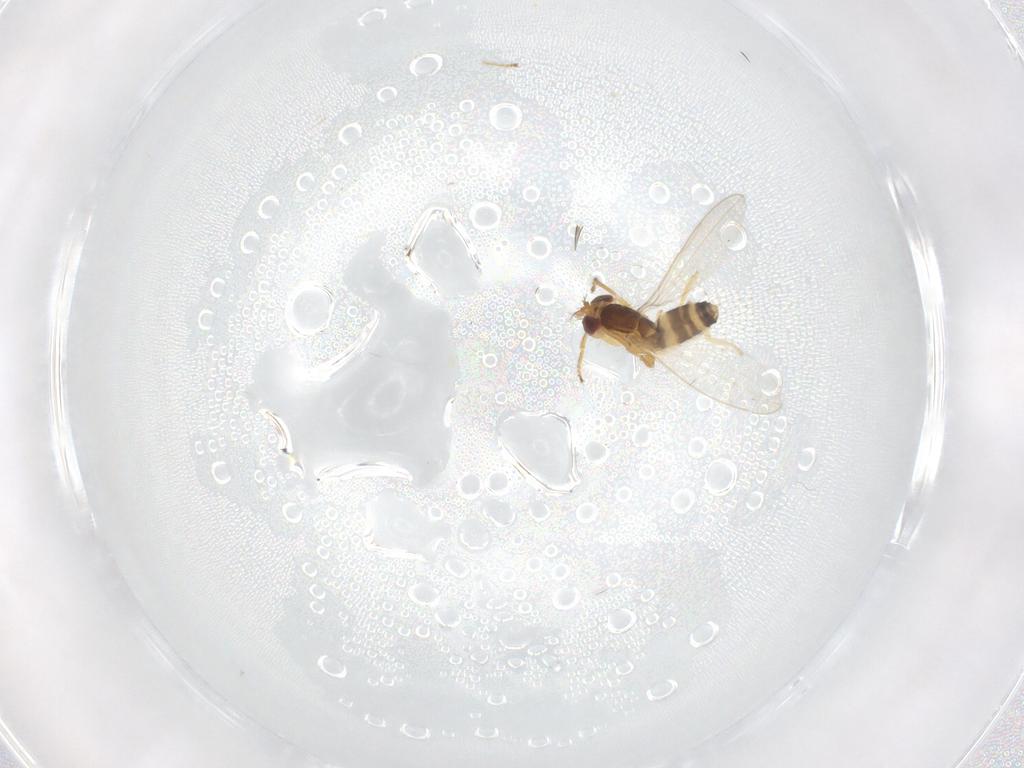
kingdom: Animalia
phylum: Arthropoda
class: Insecta
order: Diptera
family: Periscelididae
